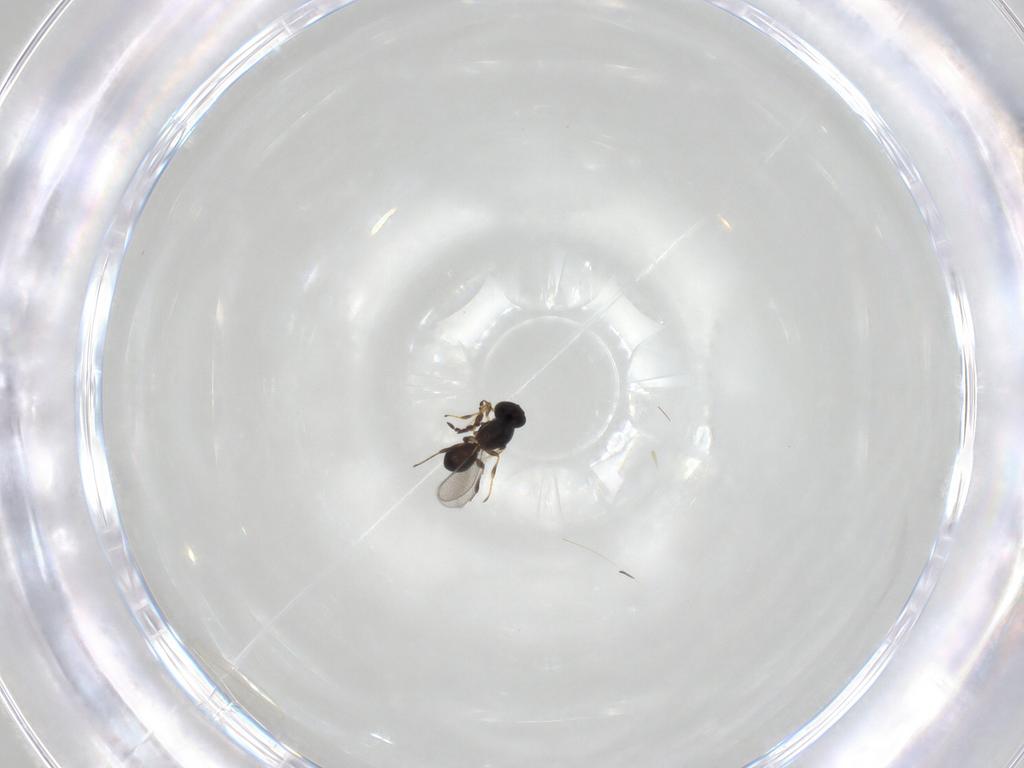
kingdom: Animalia
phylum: Arthropoda
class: Insecta
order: Hymenoptera
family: Platygastridae
